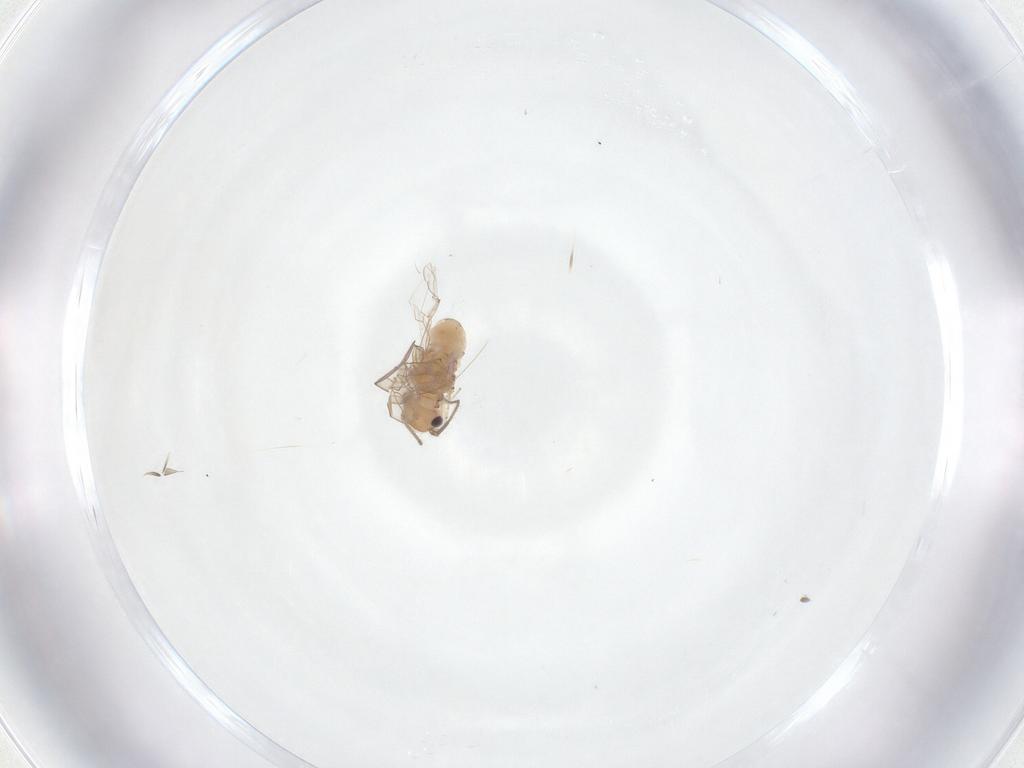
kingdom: Animalia
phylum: Arthropoda
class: Insecta
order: Psocodea
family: Ectopsocidae
